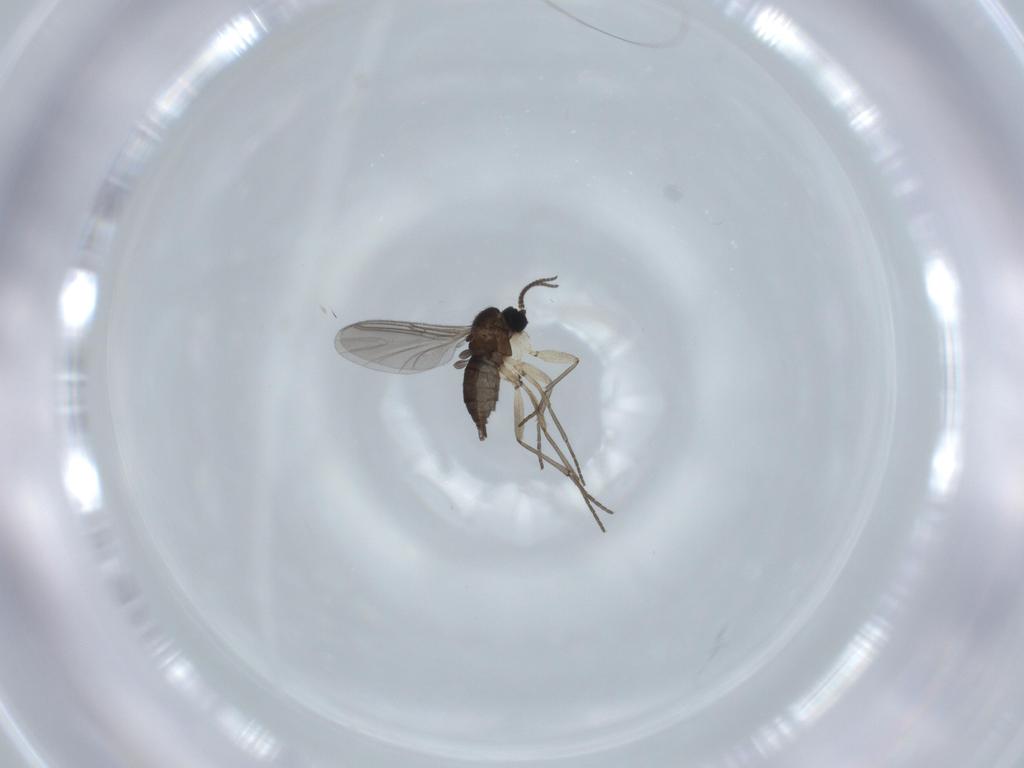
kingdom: Animalia
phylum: Arthropoda
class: Insecta
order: Diptera
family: Sciaridae
